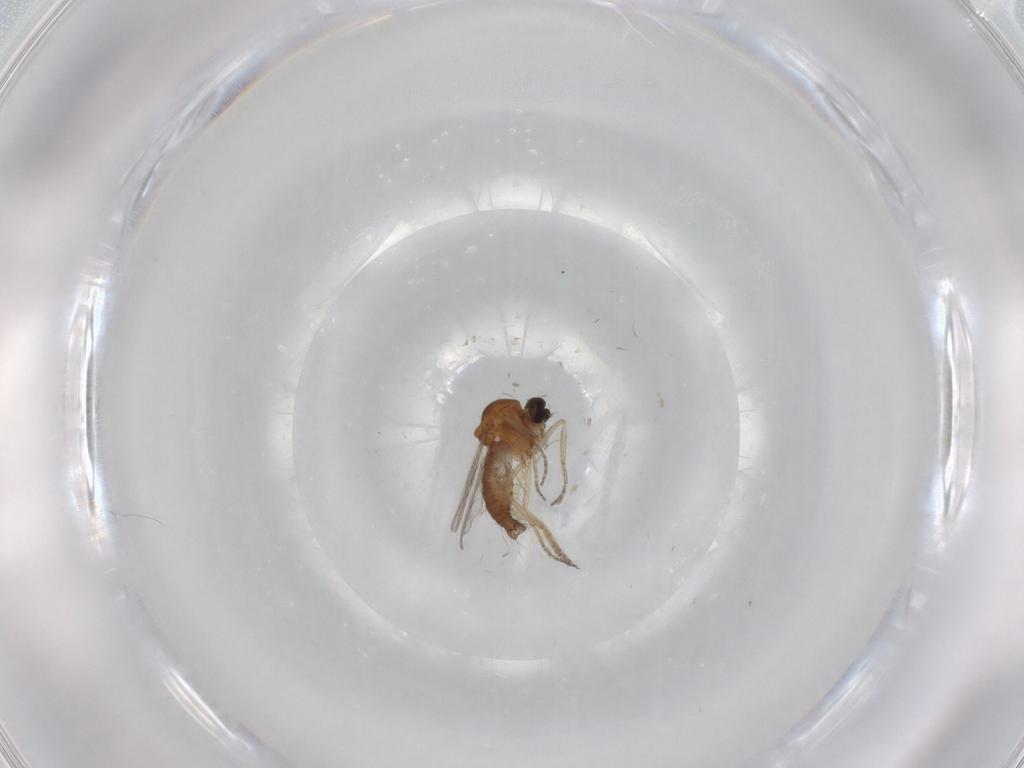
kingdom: Animalia
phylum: Arthropoda
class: Insecta
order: Diptera
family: Ceratopogonidae
